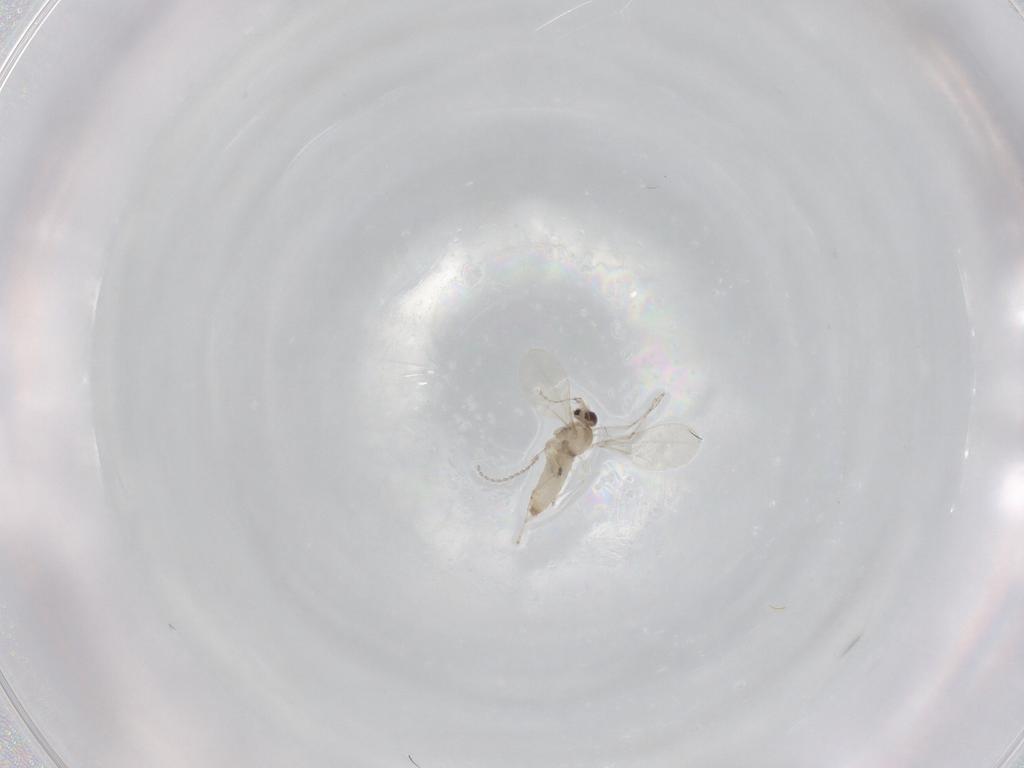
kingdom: Animalia
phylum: Arthropoda
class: Insecta
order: Diptera
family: Cecidomyiidae
